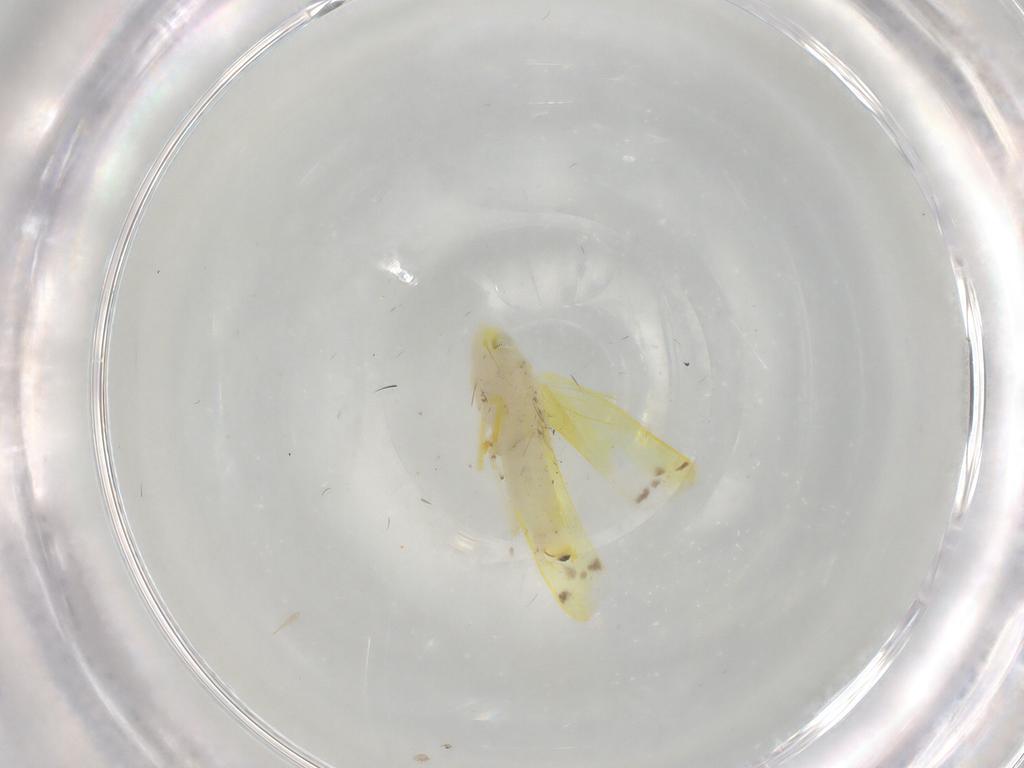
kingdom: Animalia
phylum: Arthropoda
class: Insecta
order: Hemiptera
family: Cicadellidae
